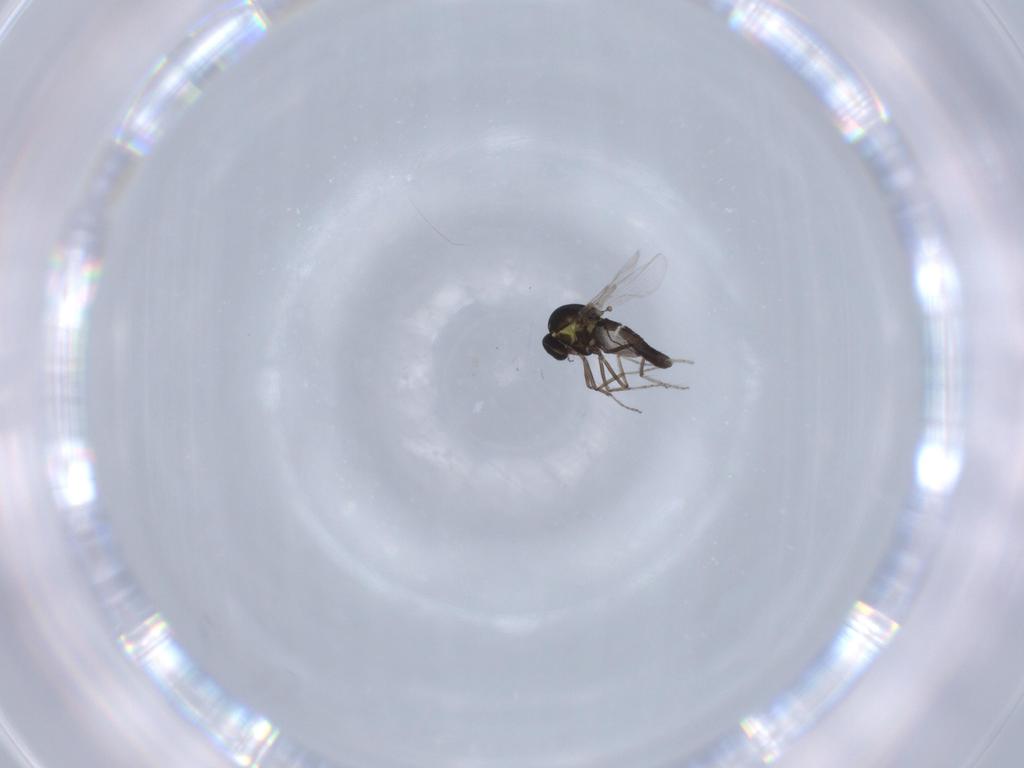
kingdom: Animalia
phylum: Arthropoda
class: Insecta
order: Diptera
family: Ceratopogonidae
